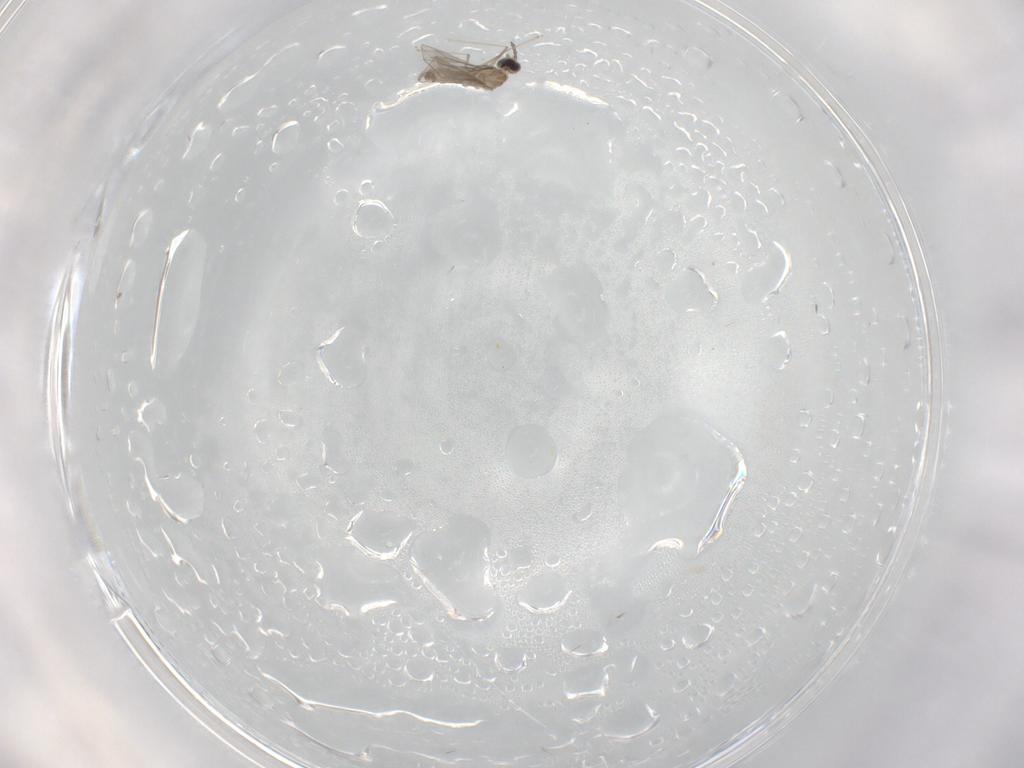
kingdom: Animalia
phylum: Arthropoda
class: Insecta
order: Diptera
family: Cecidomyiidae
